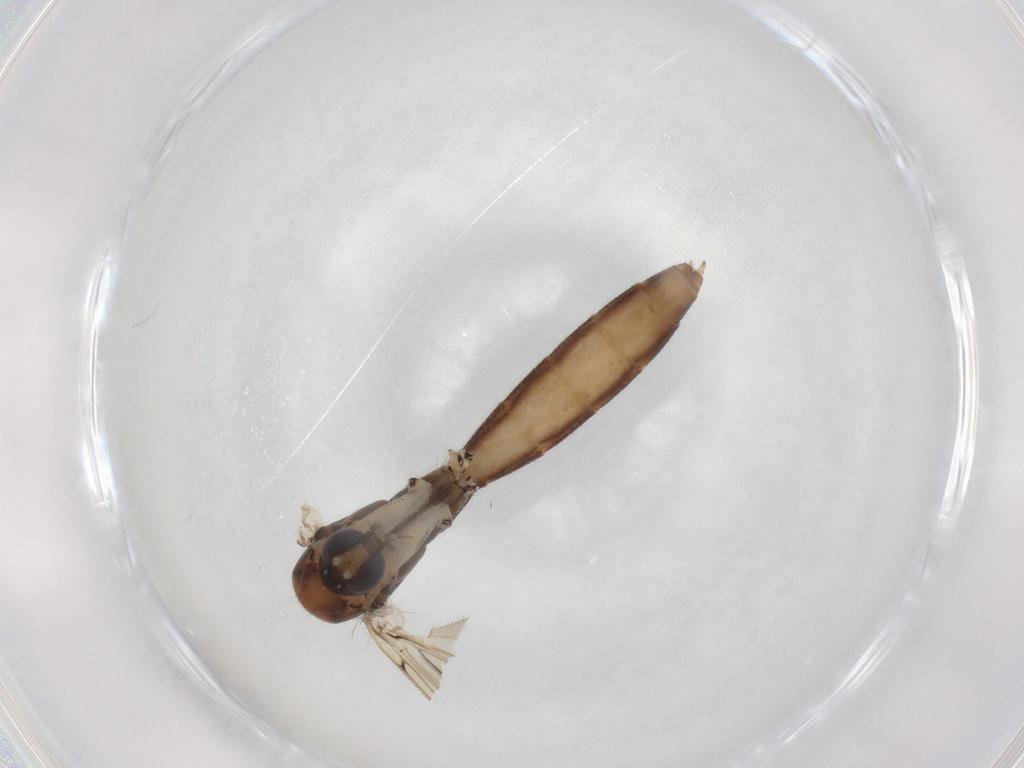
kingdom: Animalia
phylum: Arthropoda
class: Insecta
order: Diptera
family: Mycetophilidae
